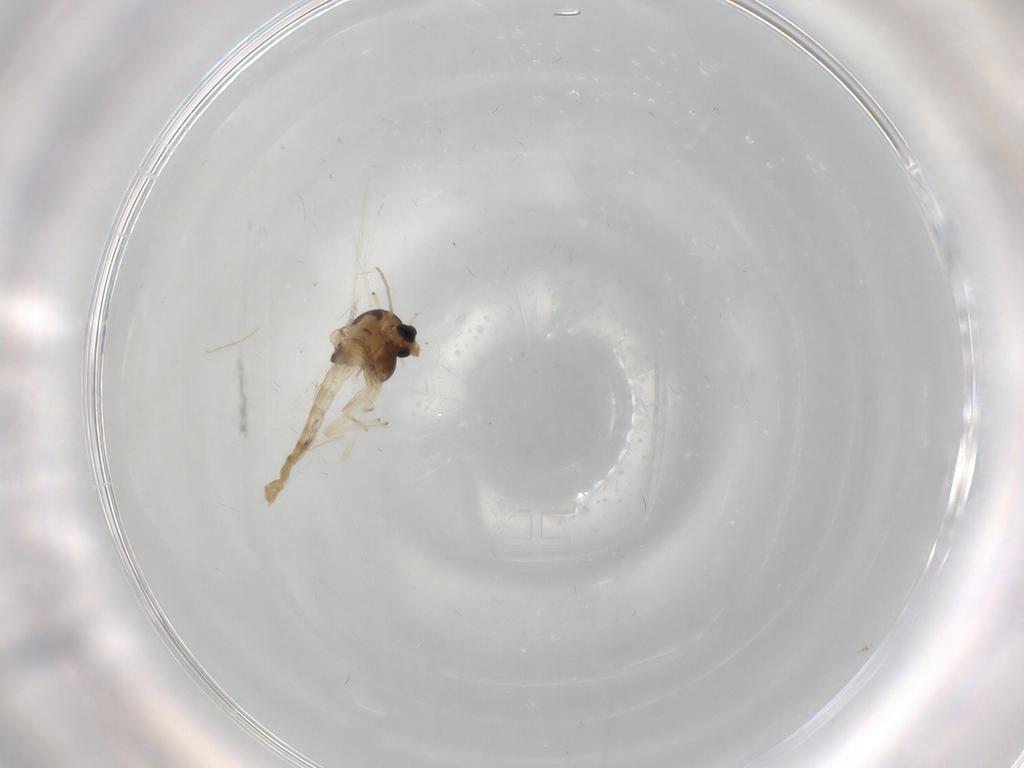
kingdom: Animalia
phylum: Arthropoda
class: Insecta
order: Diptera
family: Chironomidae
